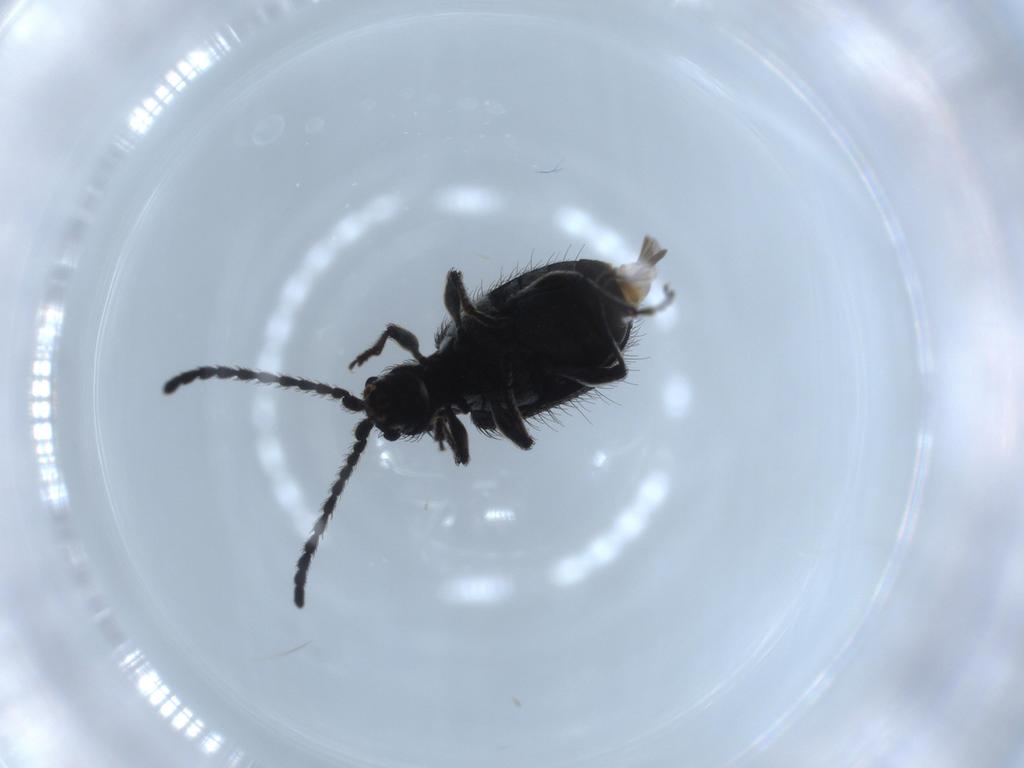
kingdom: Animalia
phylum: Arthropoda
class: Insecta
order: Coleoptera
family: Ptinidae
